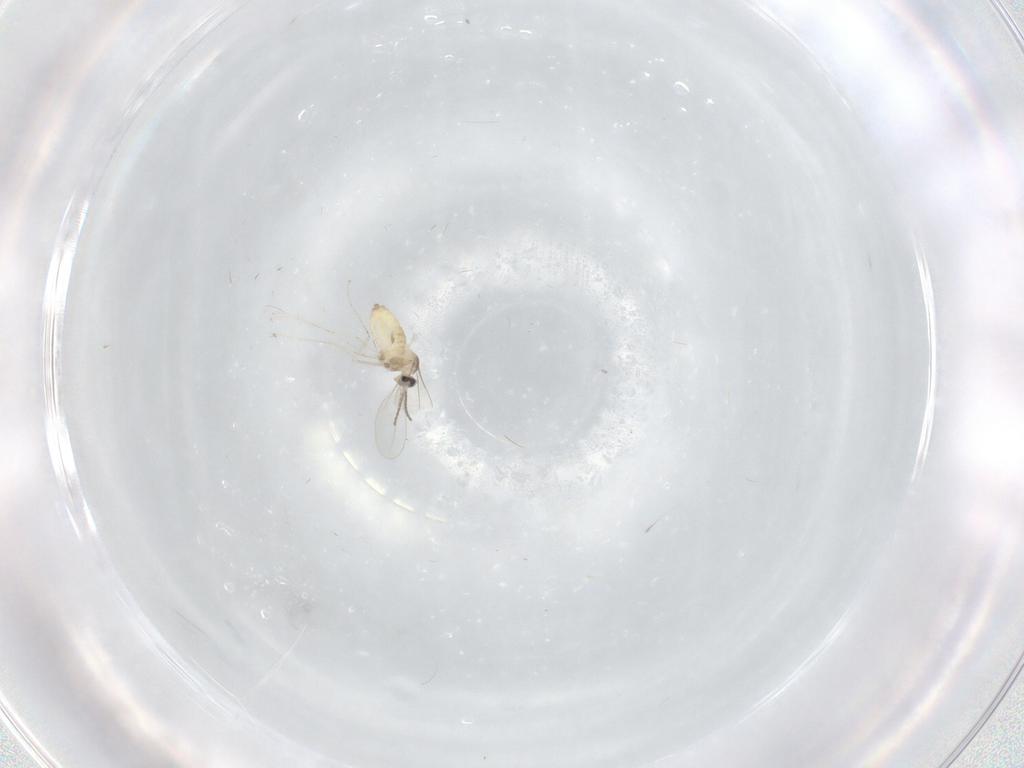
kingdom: Animalia
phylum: Arthropoda
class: Insecta
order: Diptera
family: Cecidomyiidae
